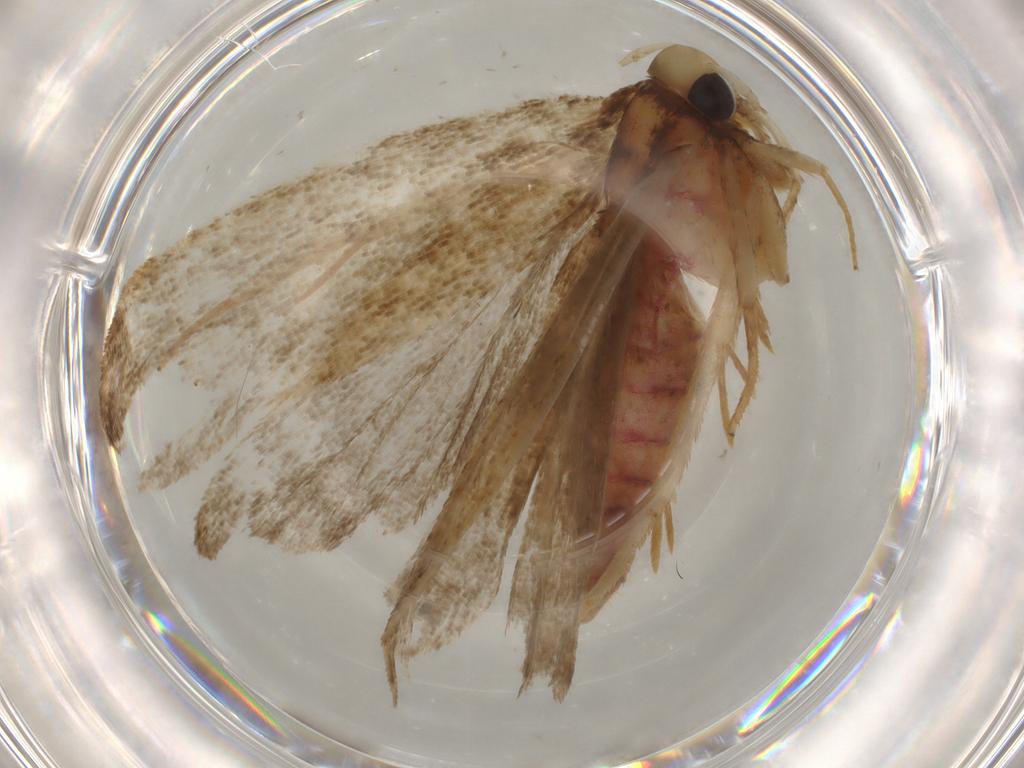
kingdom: Animalia
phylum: Arthropoda
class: Insecta
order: Lepidoptera
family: Autostichidae
